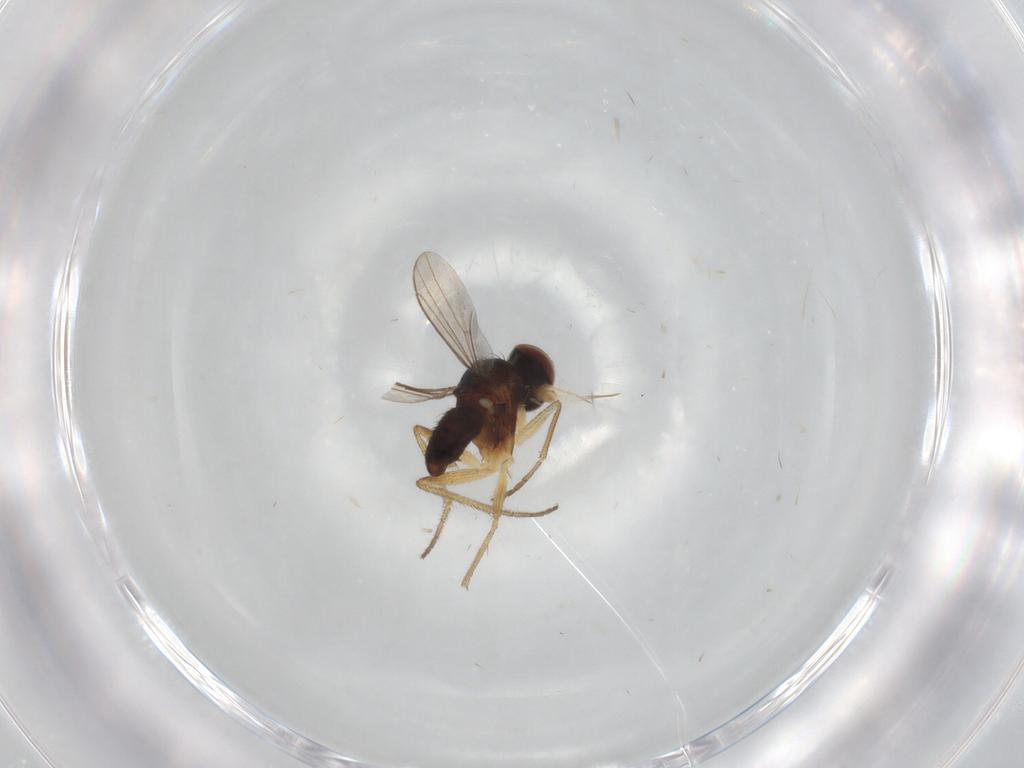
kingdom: Animalia
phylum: Arthropoda
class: Insecta
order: Diptera
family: Dolichopodidae
